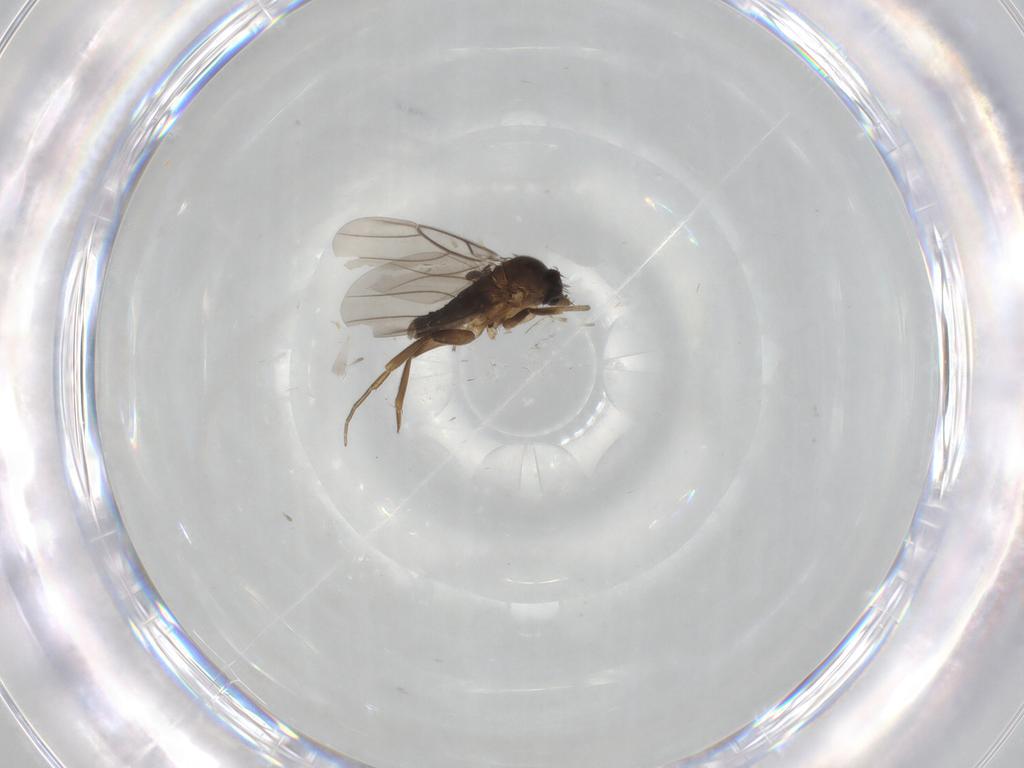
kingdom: Animalia
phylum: Arthropoda
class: Insecta
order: Diptera
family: Phoridae
